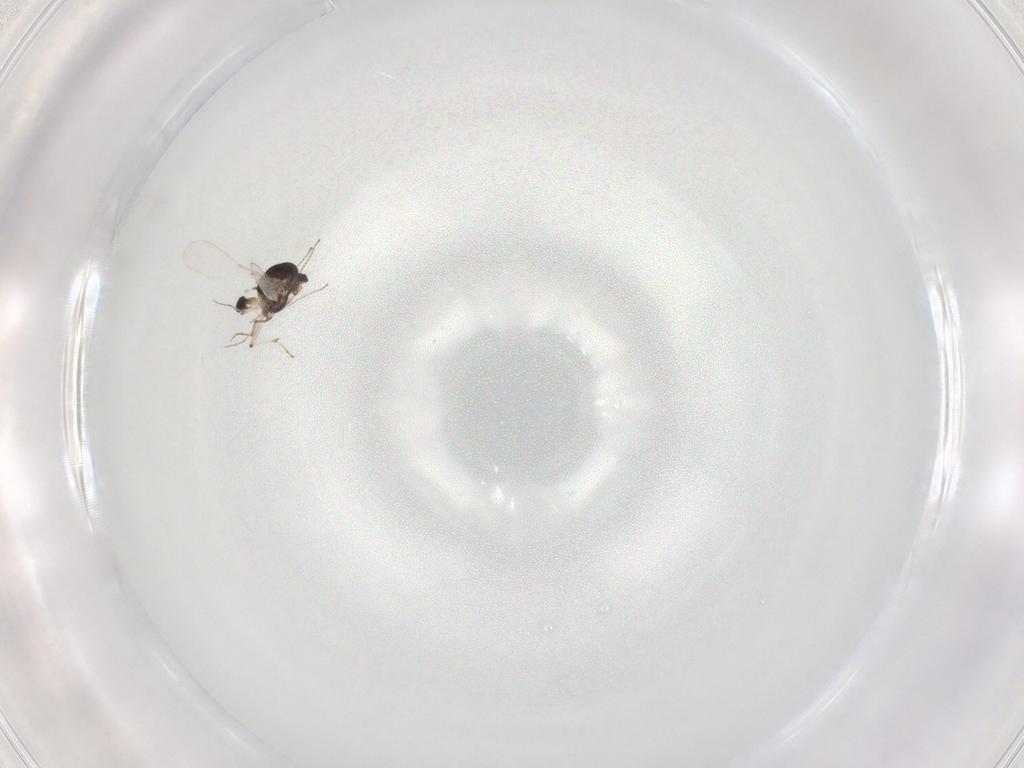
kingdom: Animalia
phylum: Arthropoda
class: Insecta
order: Diptera
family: Chironomidae
